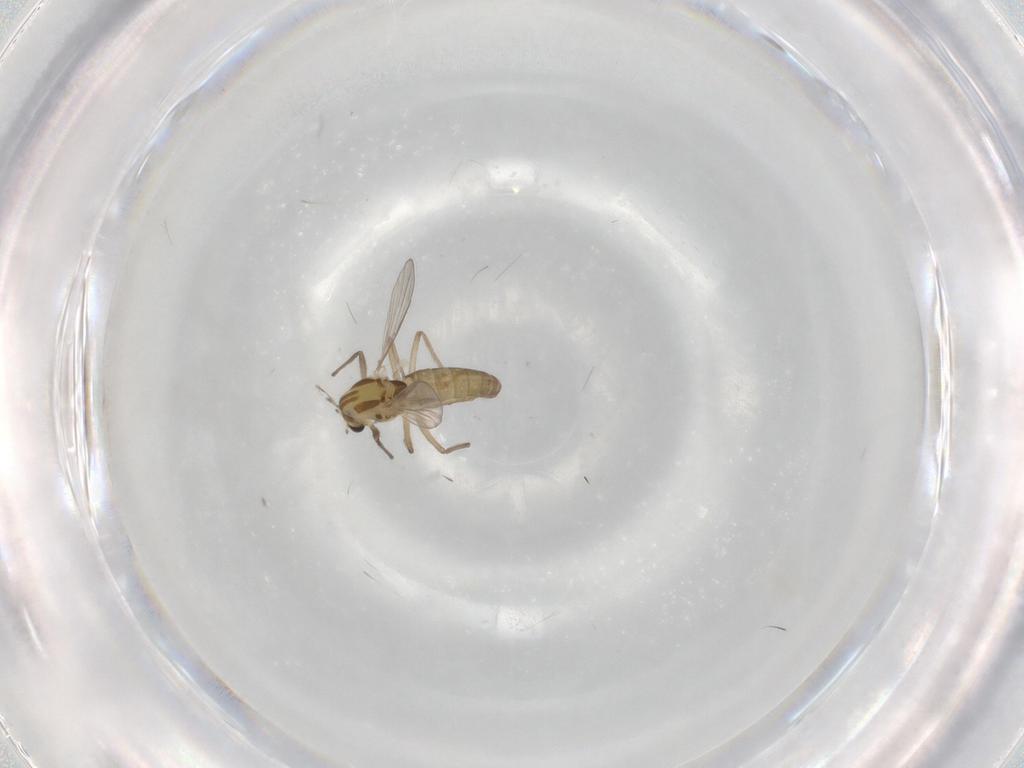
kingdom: Animalia
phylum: Arthropoda
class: Insecta
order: Diptera
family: Chironomidae
